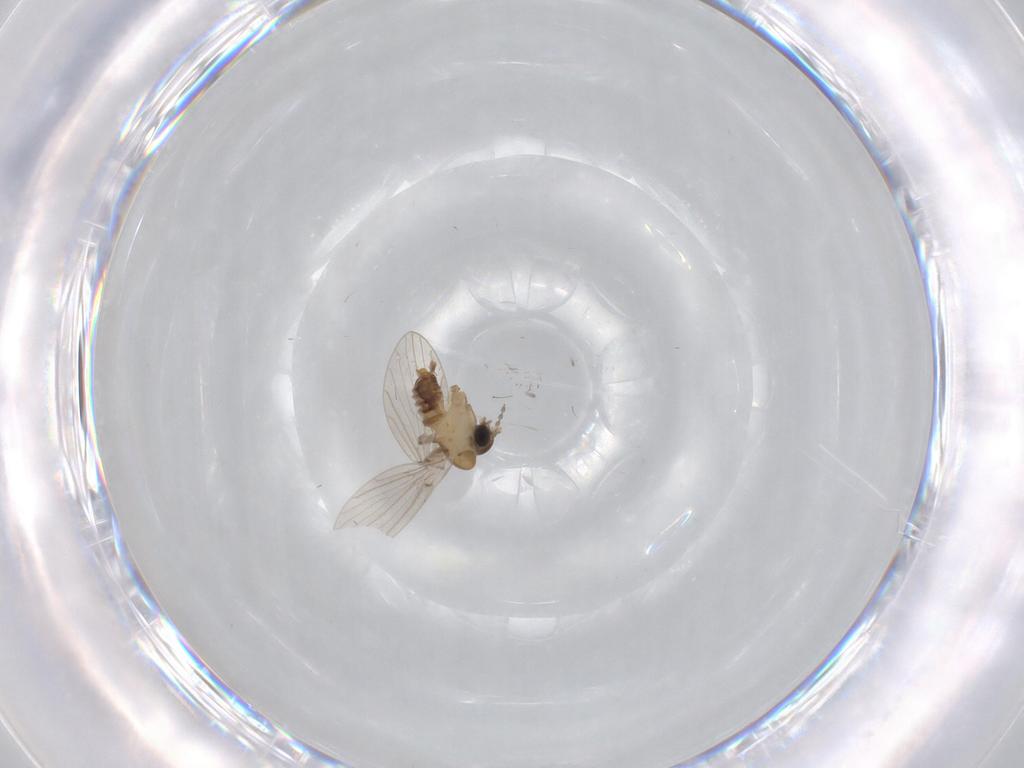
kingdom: Animalia
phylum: Arthropoda
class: Insecta
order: Diptera
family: Psychodidae
